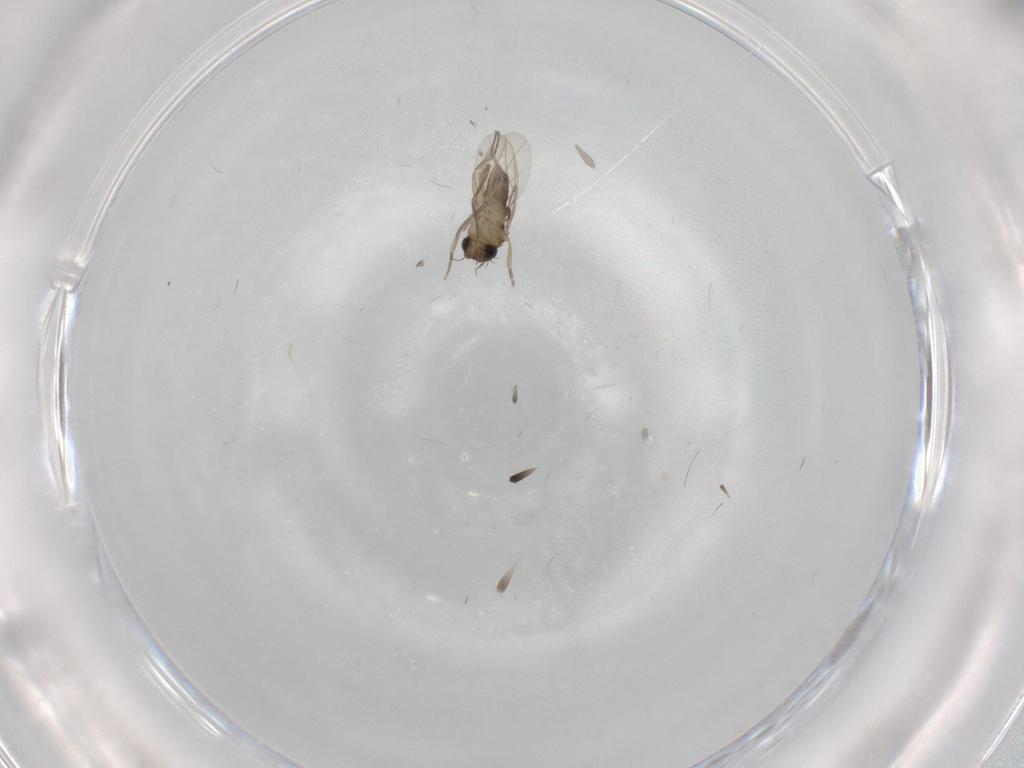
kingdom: Animalia
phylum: Arthropoda
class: Insecta
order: Diptera
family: Phoridae
